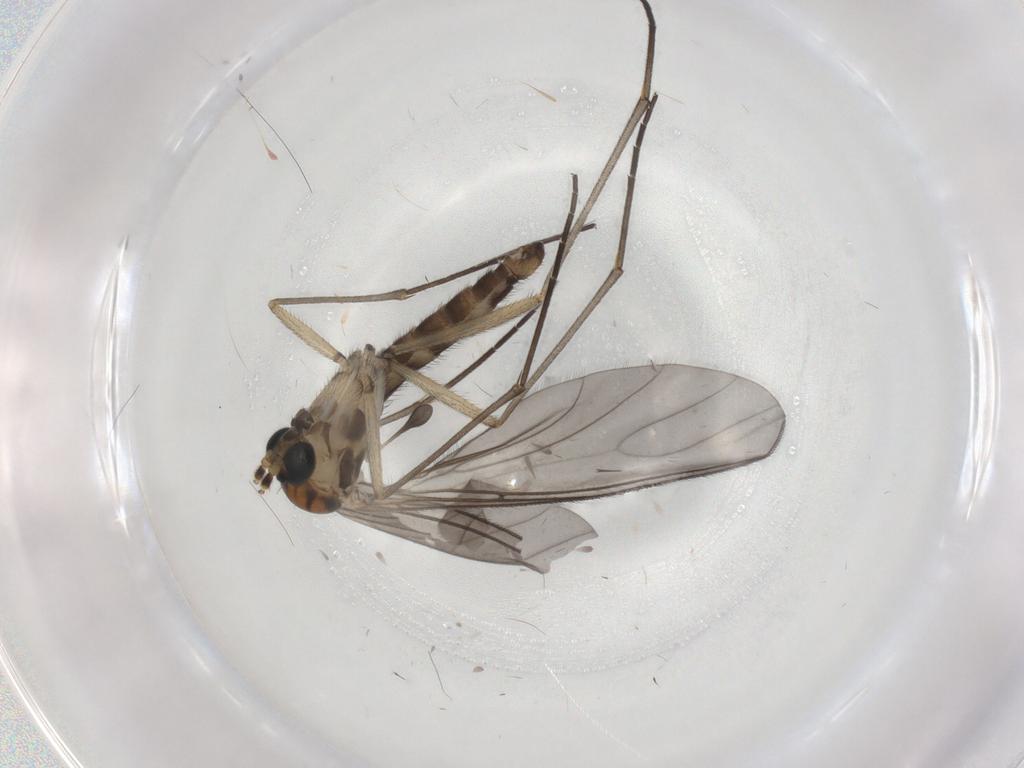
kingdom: Animalia
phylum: Arthropoda
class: Insecta
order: Diptera
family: Sciaridae
